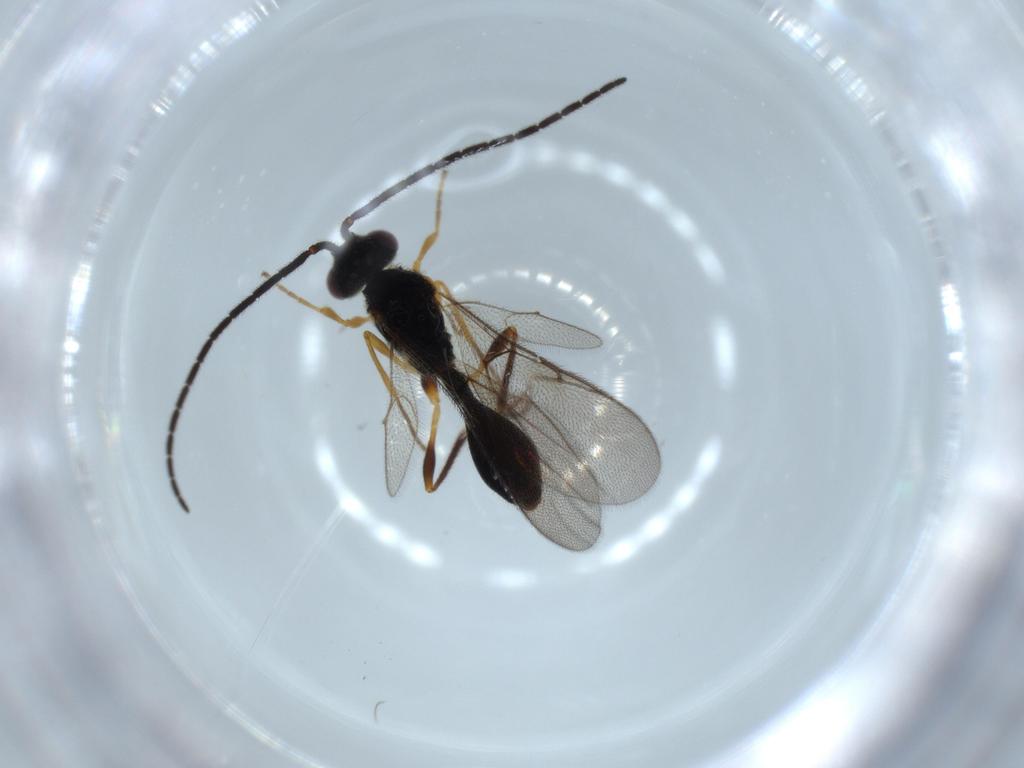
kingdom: Animalia
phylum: Arthropoda
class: Insecta
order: Hymenoptera
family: Trichogrammatidae
